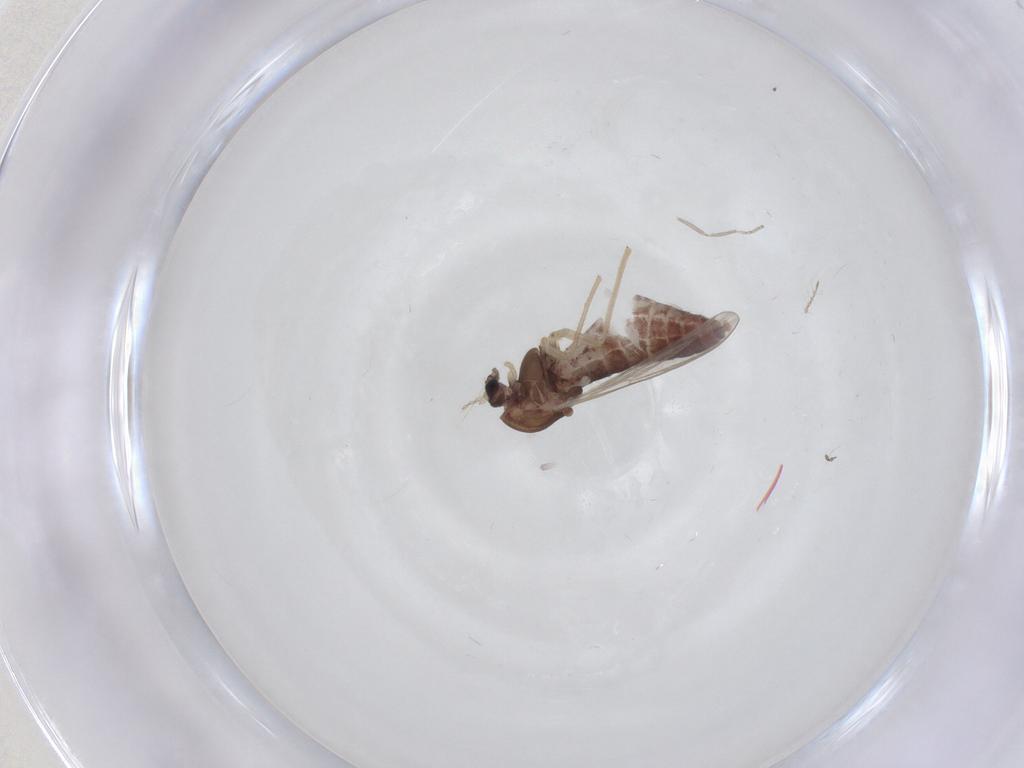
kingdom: Animalia
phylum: Arthropoda
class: Insecta
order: Diptera
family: Chironomidae
